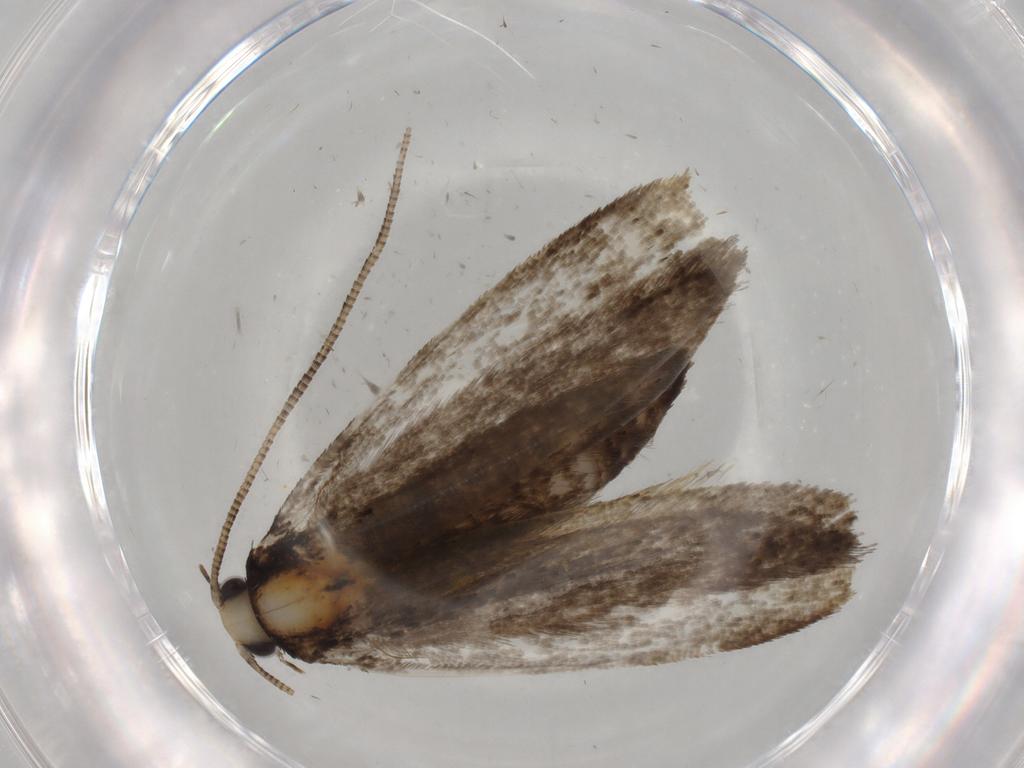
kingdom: Animalia
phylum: Arthropoda
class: Insecta
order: Lepidoptera
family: Tineidae
